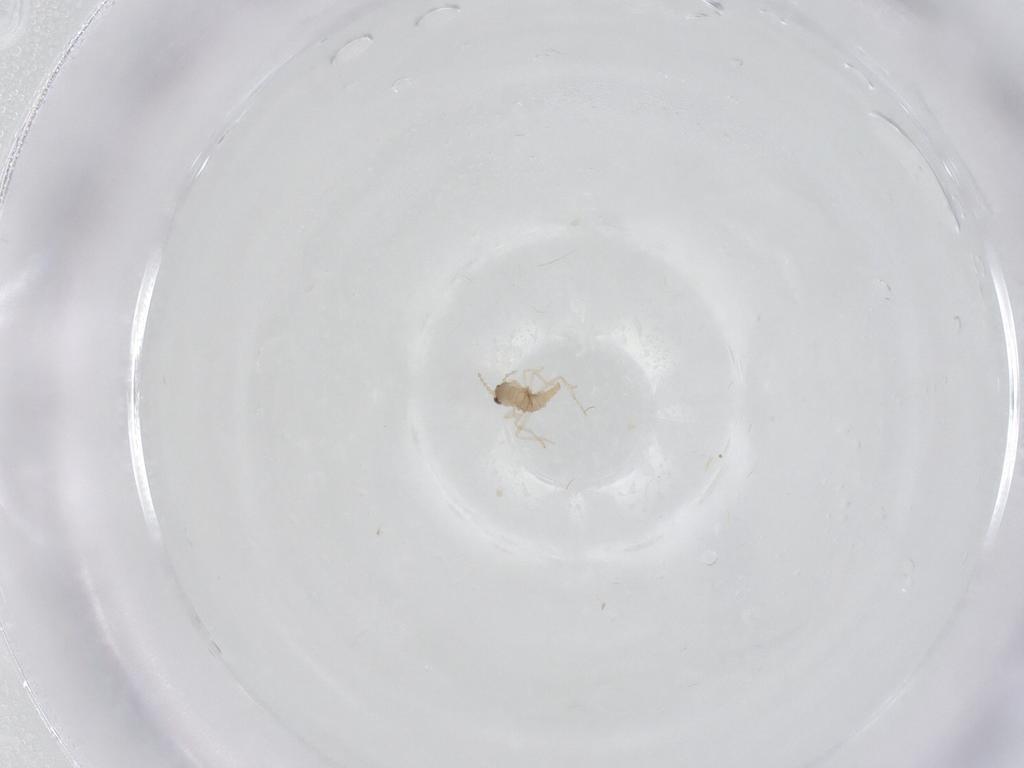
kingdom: Animalia
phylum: Arthropoda
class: Insecta
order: Diptera
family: Cecidomyiidae
